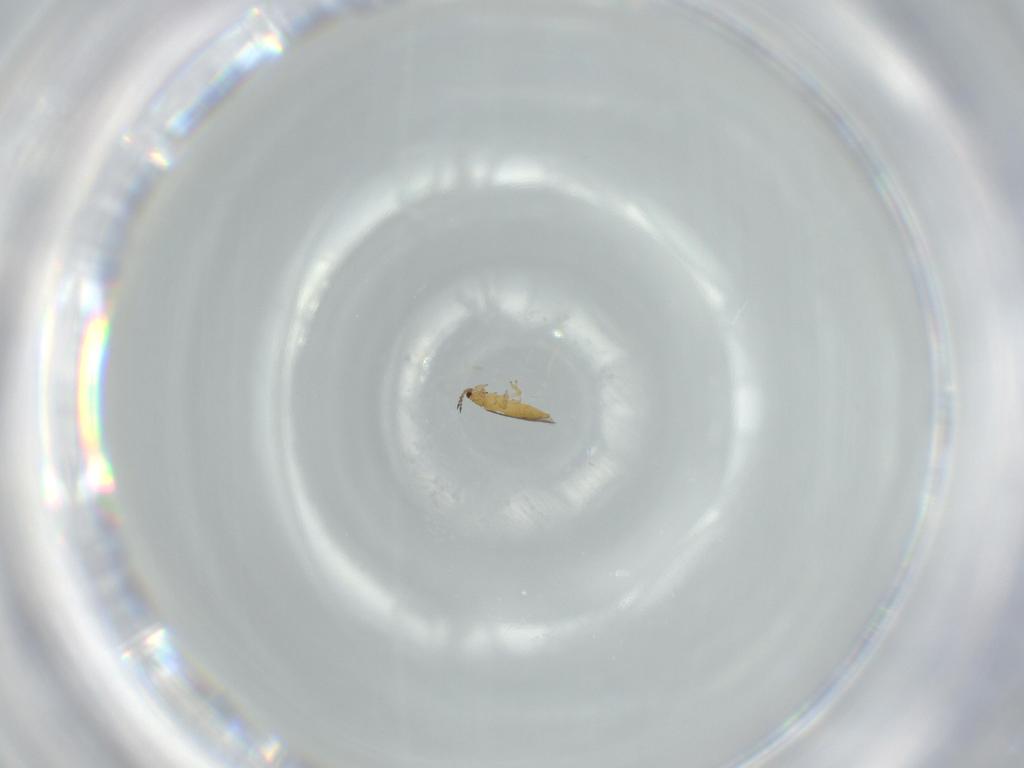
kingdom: Animalia
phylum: Arthropoda
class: Insecta
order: Thysanoptera
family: Thripidae
